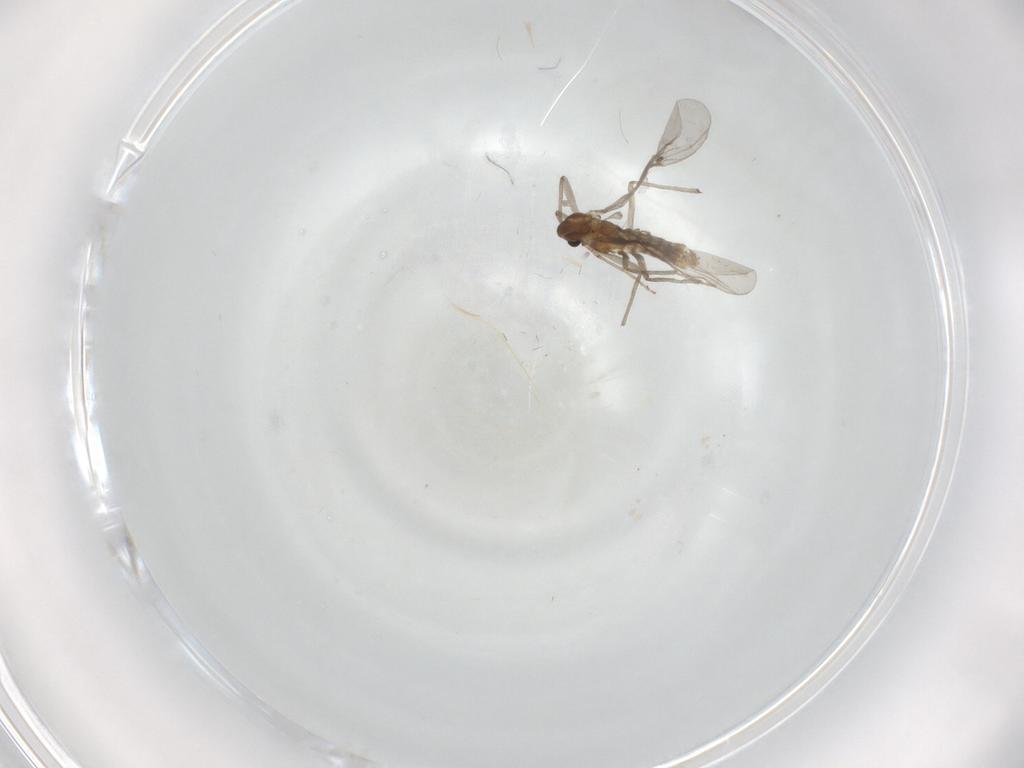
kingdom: Animalia
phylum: Arthropoda
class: Insecta
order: Diptera
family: Chironomidae
